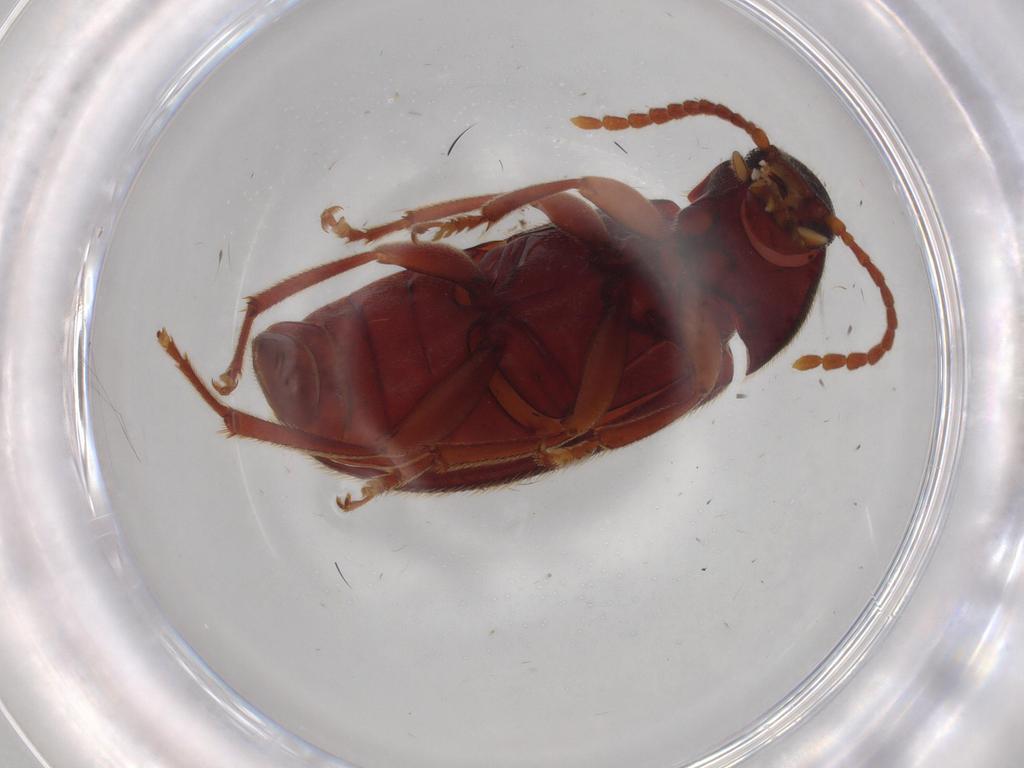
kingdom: Animalia
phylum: Arthropoda
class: Insecta
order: Coleoptera
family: Tenebrionidae
